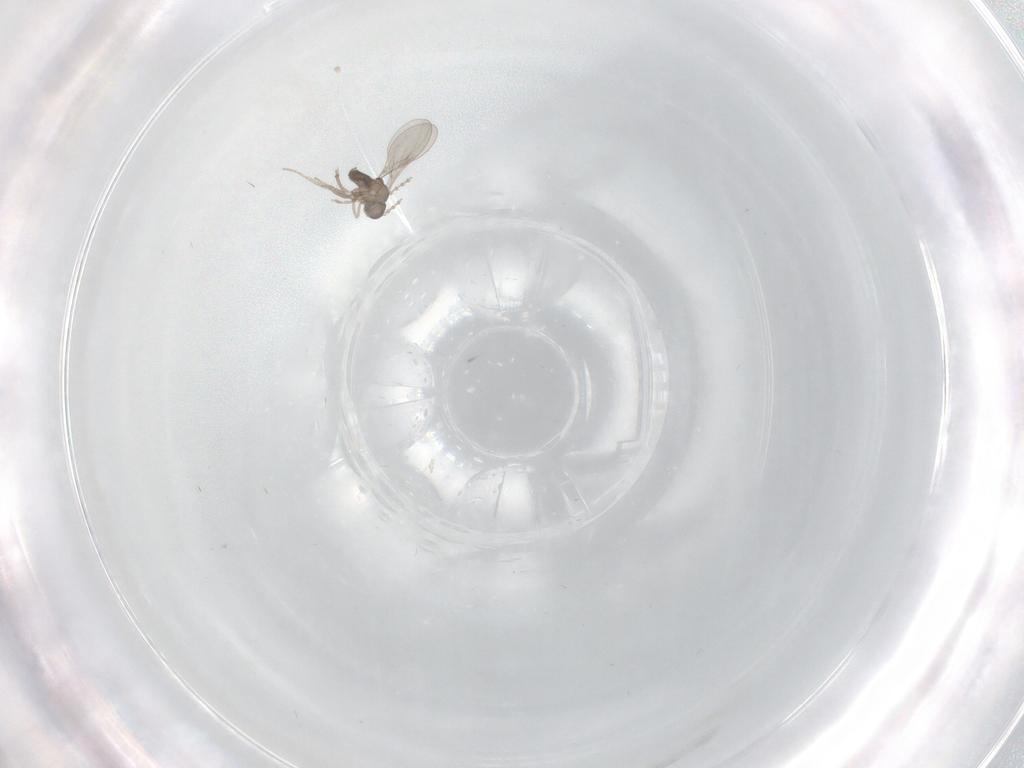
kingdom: Animalia
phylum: Arthropoda
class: Insecta
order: Diptera
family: Cecidomyiidae
